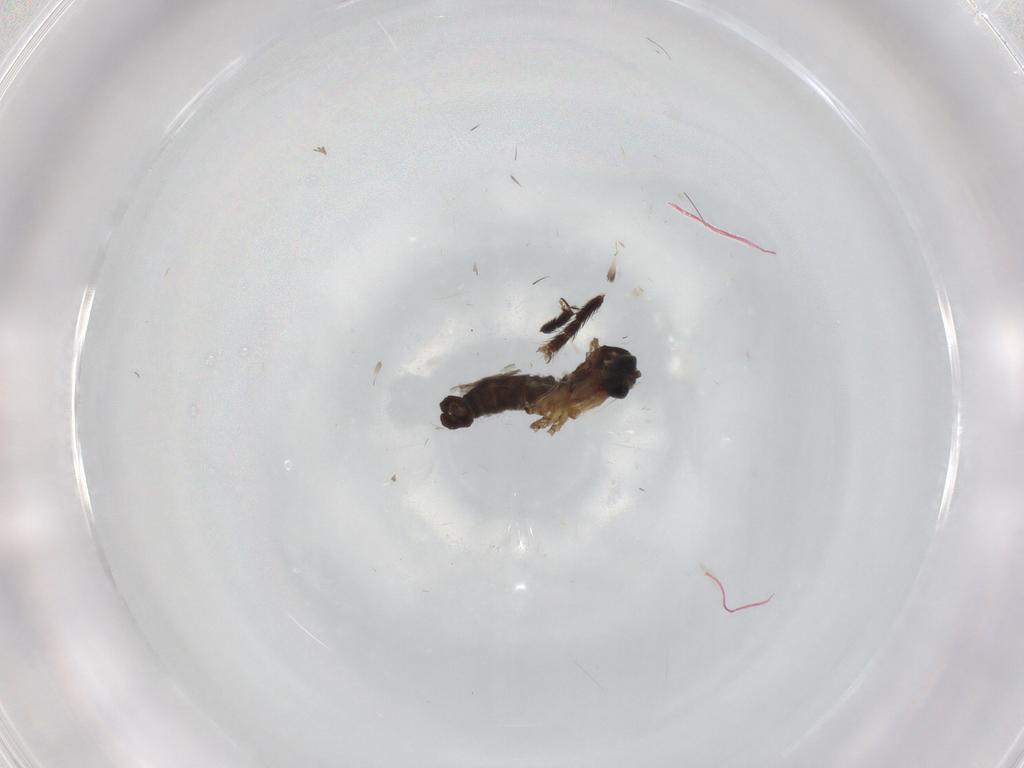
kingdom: Animalia
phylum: Arthropoda
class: Insecta
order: Diptera
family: Sciaridae
